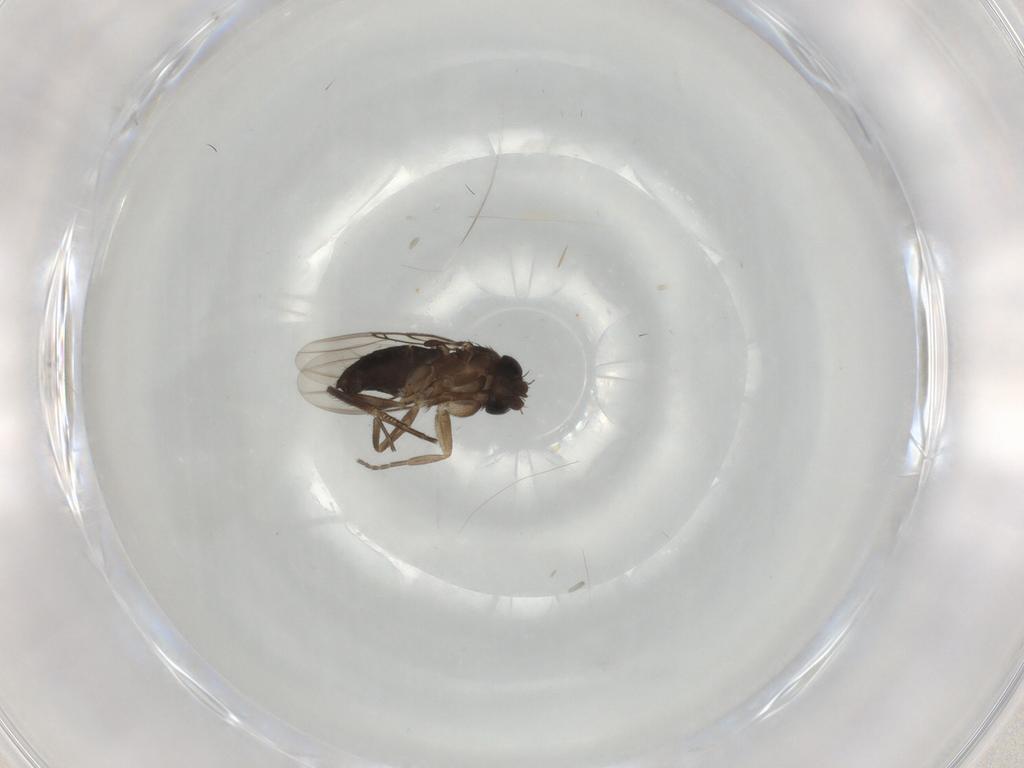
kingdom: Animalia
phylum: Arthropoda
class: Insecta
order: Diptera
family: Phoridae
